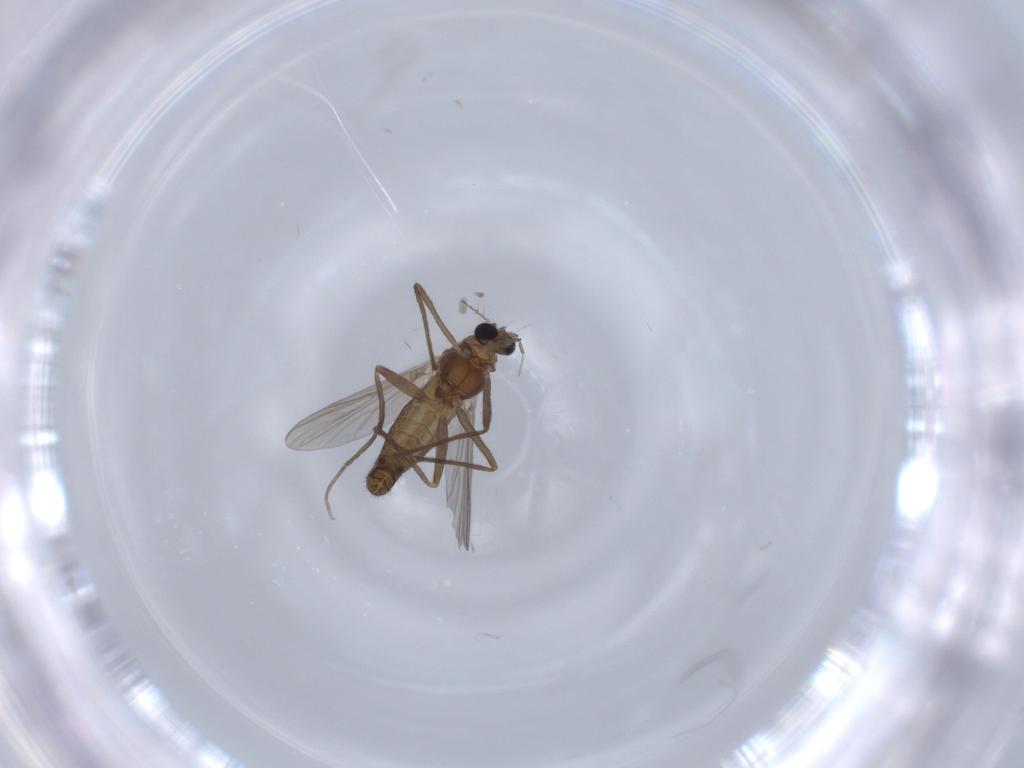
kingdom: Animalia
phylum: Arthropoda
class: Insecta
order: Diptera
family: Chironomidae
